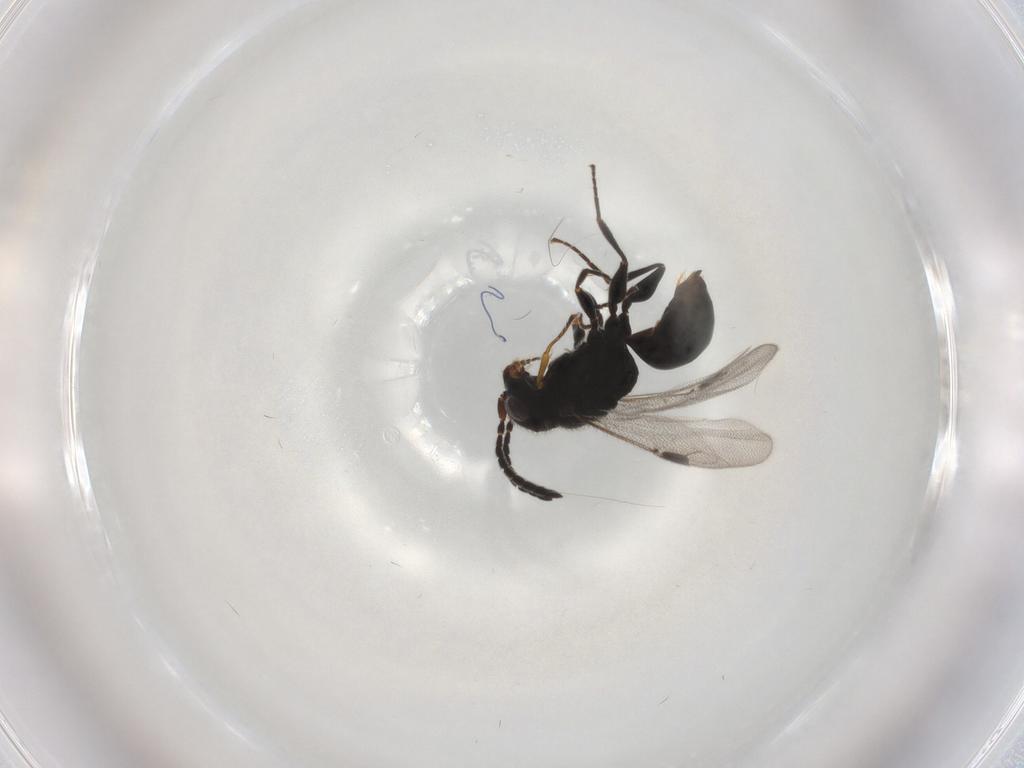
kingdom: Animalia
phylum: Arthropoda
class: Insecta
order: Hymenoptera
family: Dryinidae
